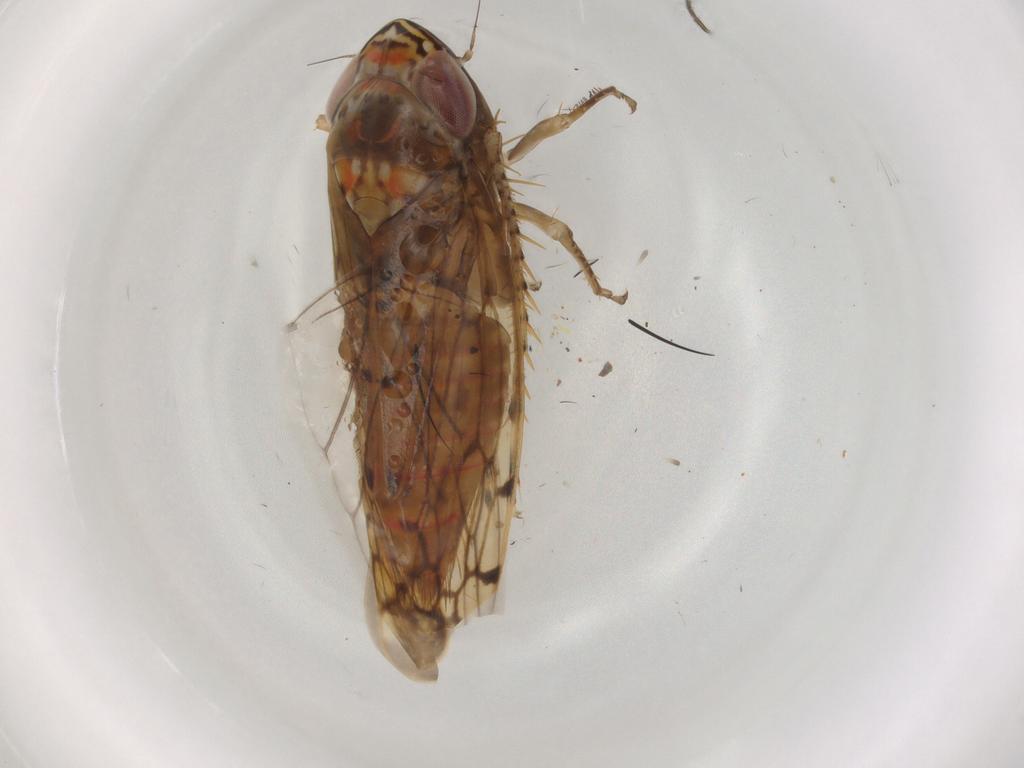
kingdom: Animalia
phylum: Arthropoda
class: Insecta
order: Hemiptera
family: Cicadellidae
